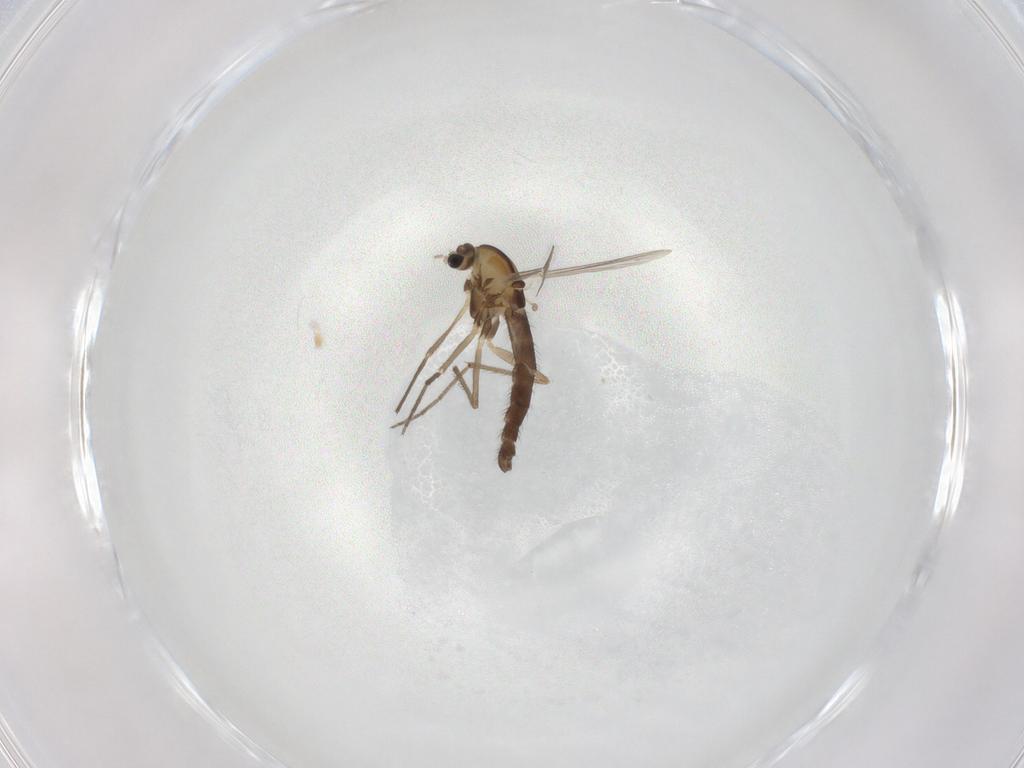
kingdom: Animalia
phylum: Arthropoda
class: Insecta
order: Diptera
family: Chironomidae
